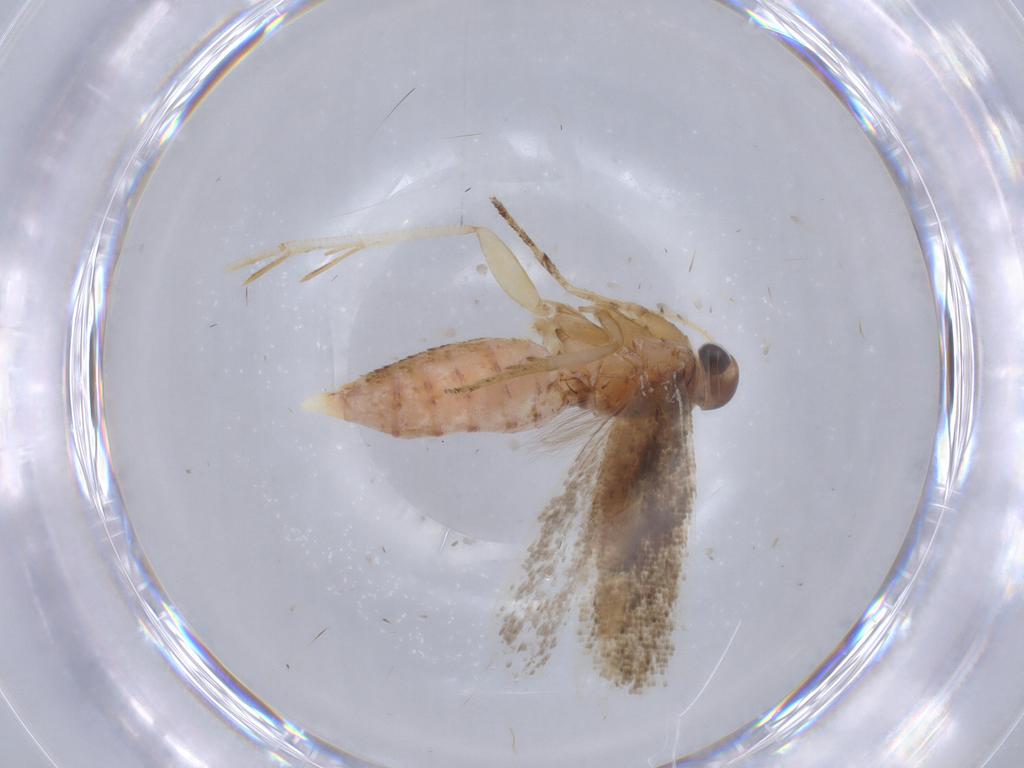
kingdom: Animalia
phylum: Arthropoda
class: Insecta
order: Lepidoptera
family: Gelechiidae
